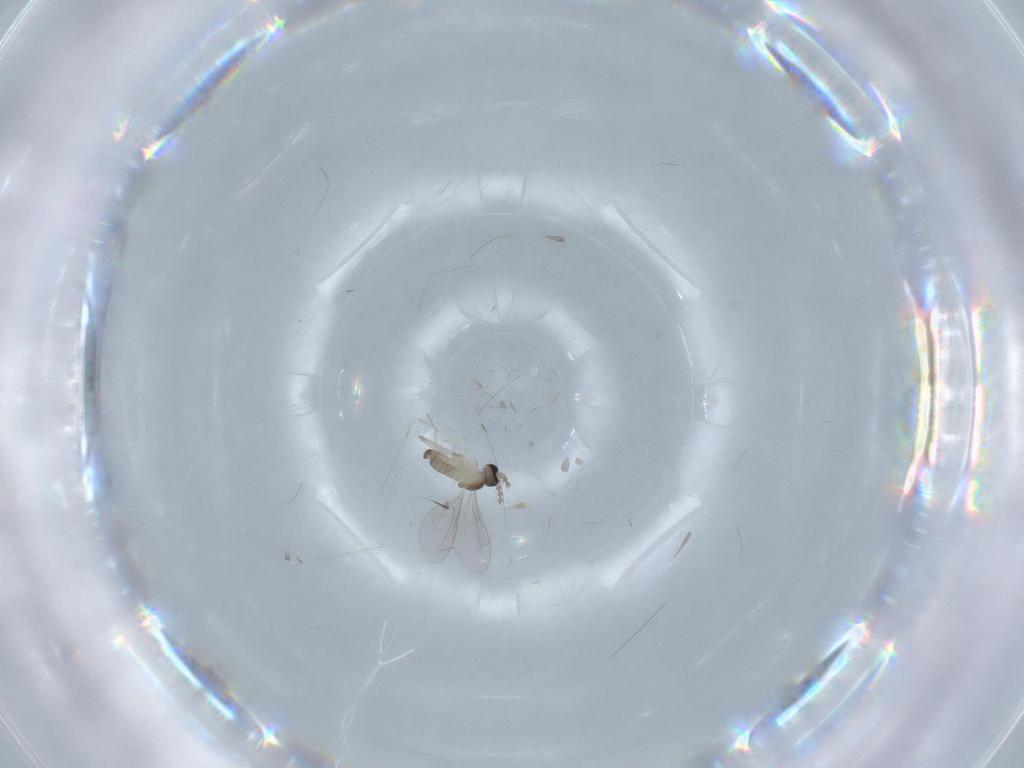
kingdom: Animalia
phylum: Arthropoda
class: Insecta
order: Diptera
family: Cecidomyiidae
